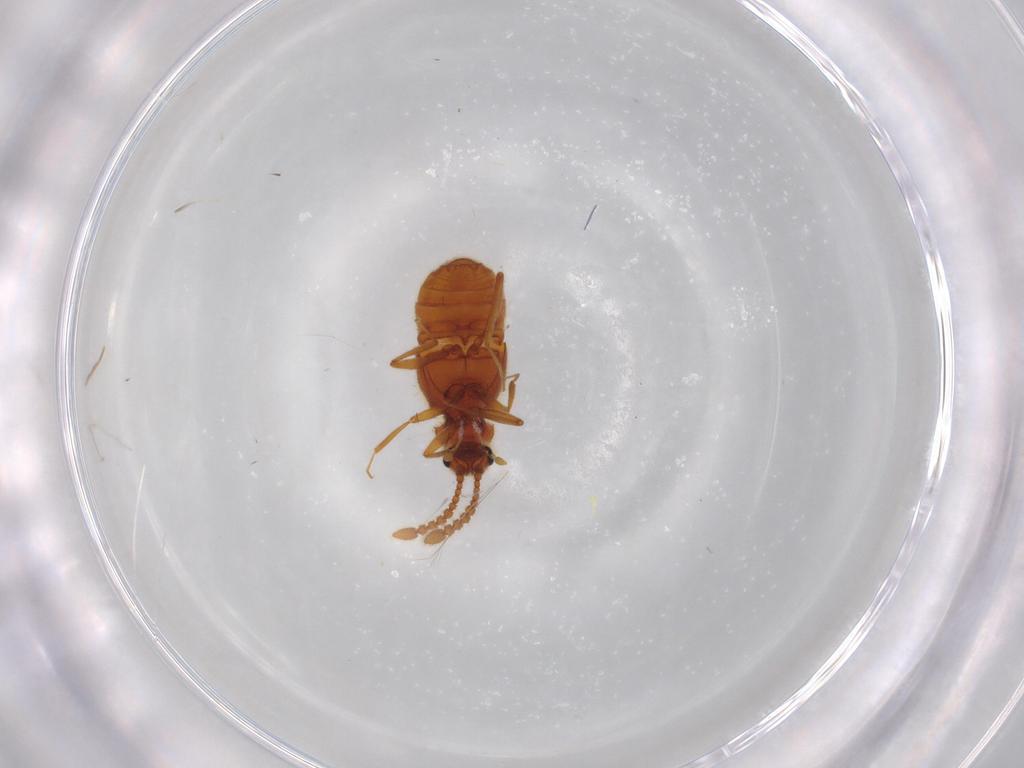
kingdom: Animalia
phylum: Arthropoda
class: Insecta
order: Coleoptera
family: Staphylinidae
